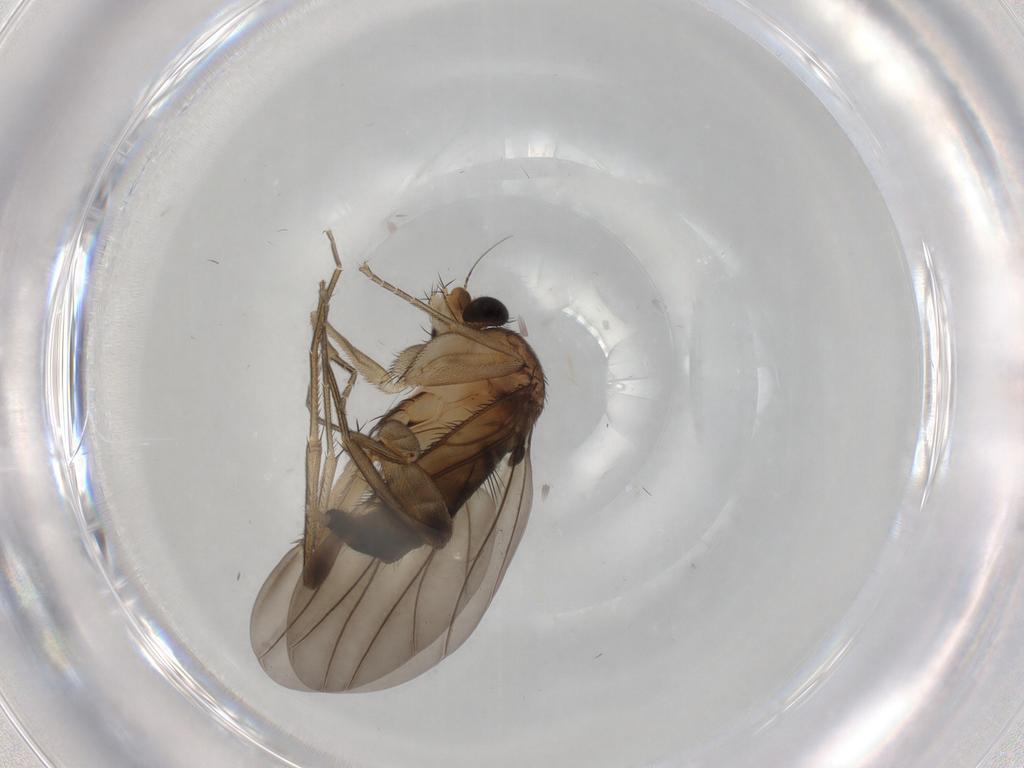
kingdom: Animalia
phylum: Arthropoda
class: Insecta
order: Diptera
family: Phoridae
